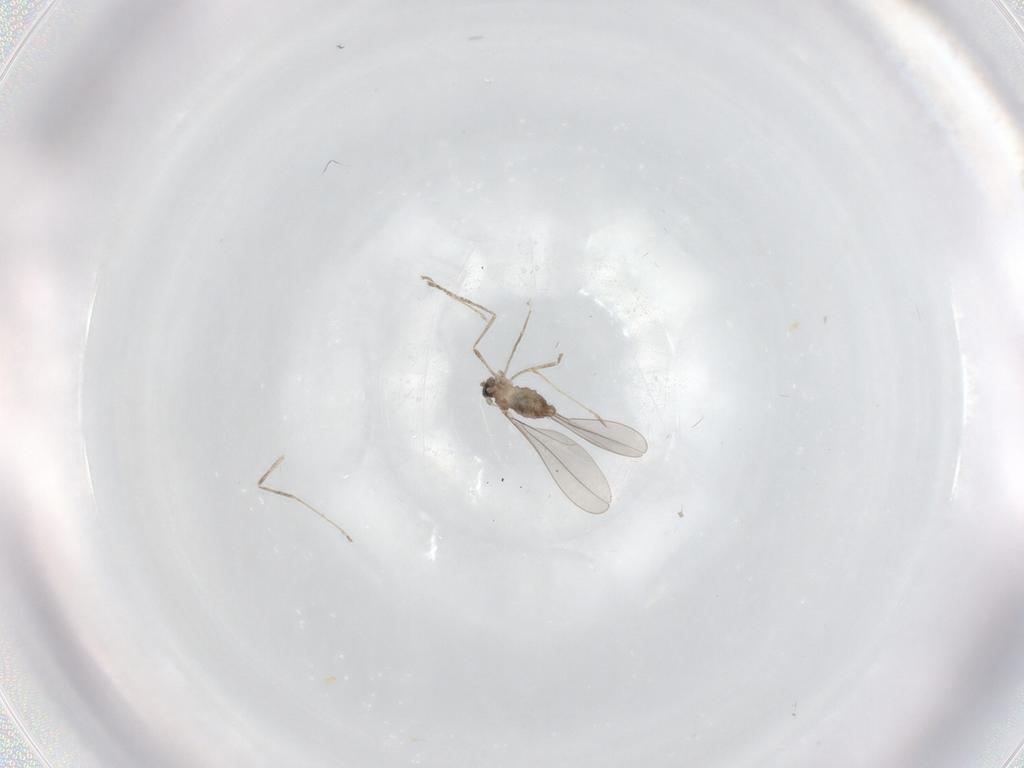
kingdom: Animalia
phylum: Arthropoda
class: Insecta
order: Diptera
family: Cecidomyiidae
